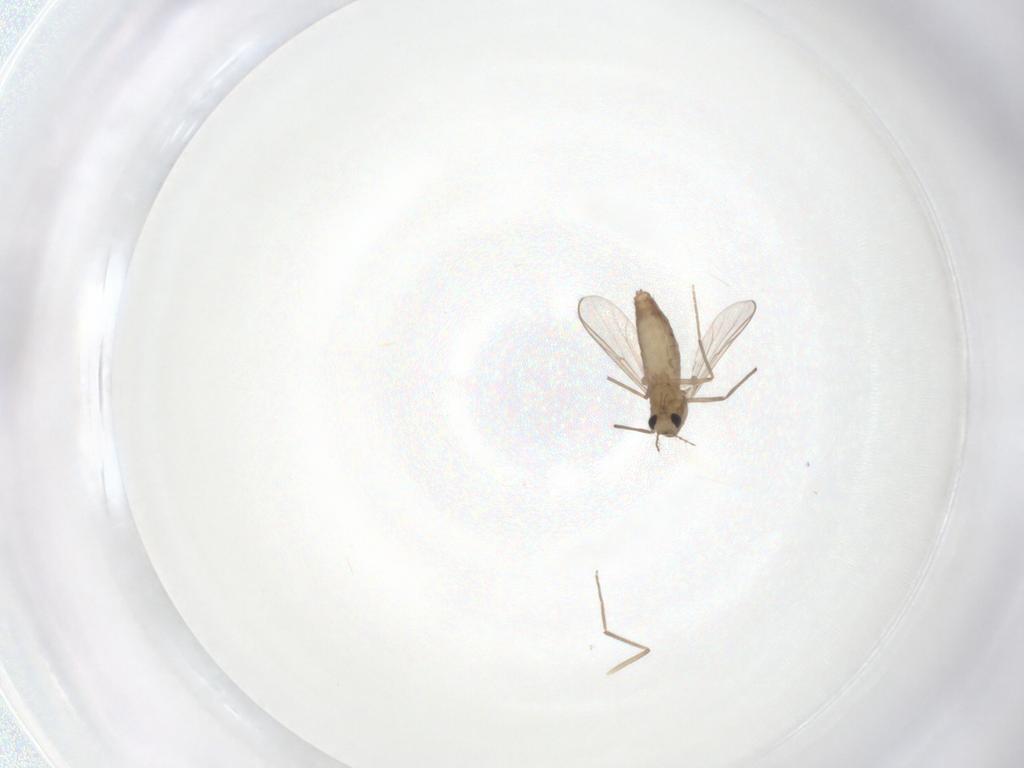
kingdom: Animalia
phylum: Arthropoda
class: Insecta
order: Diptera
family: Chironomidae
